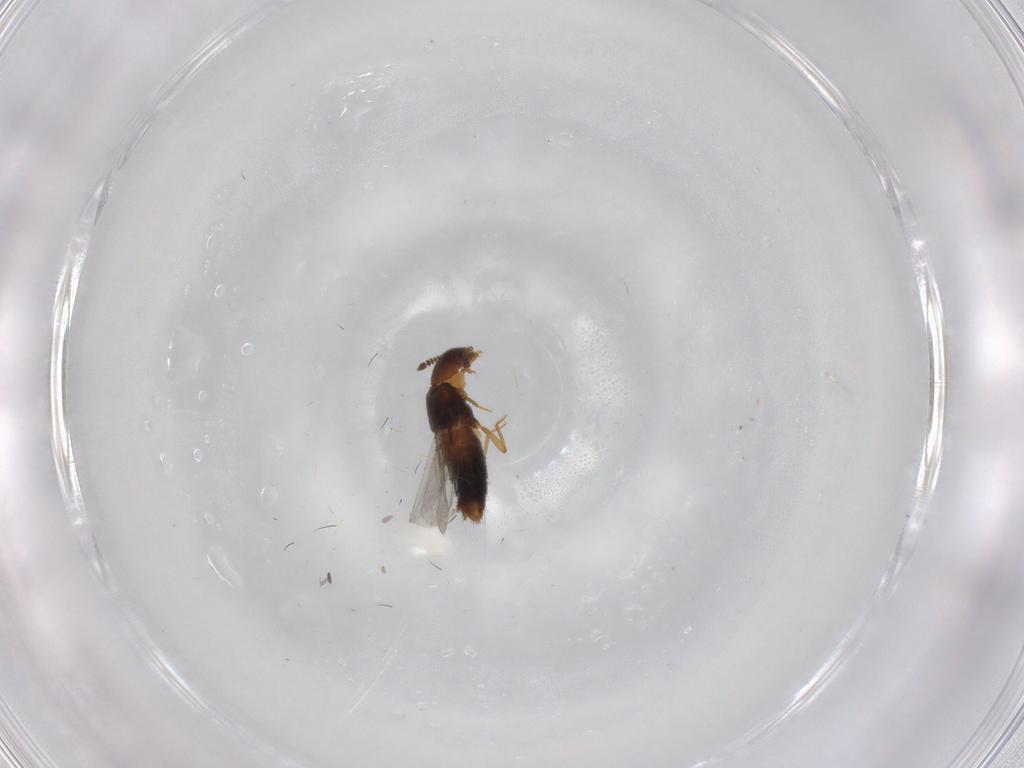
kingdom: Animalia
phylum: Arthropoda
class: Insecta
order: Coleoptera
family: Staphylinidae
